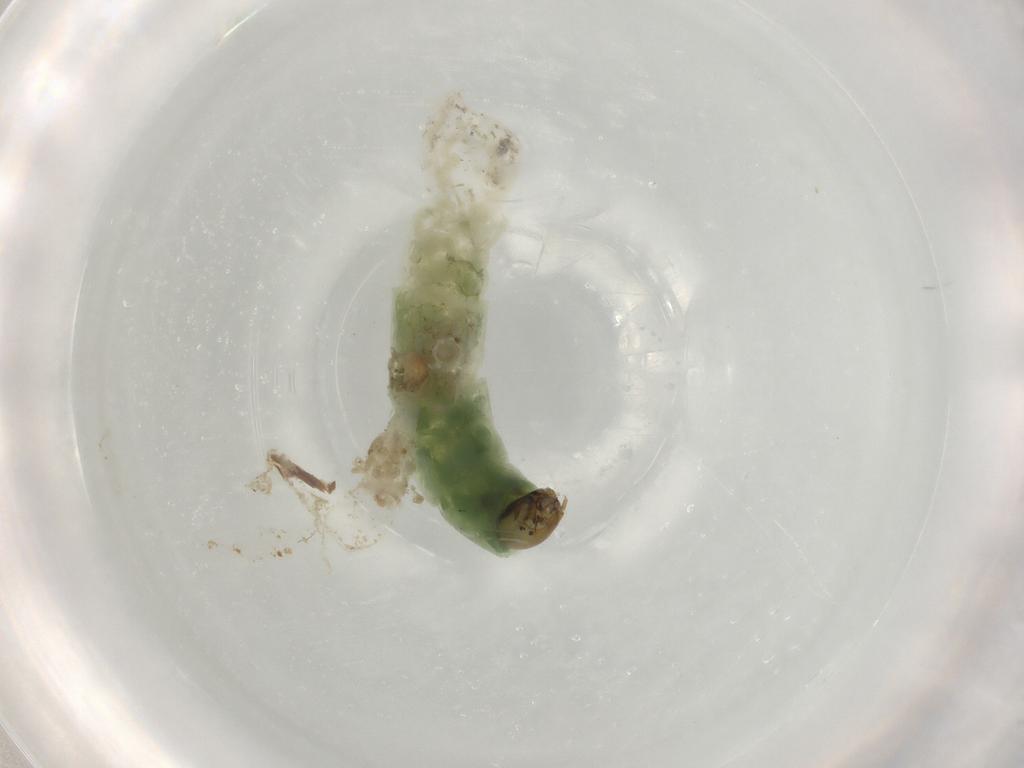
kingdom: Animalia
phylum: Arthropoda
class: Insecta
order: Diptera
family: Chironomidae
